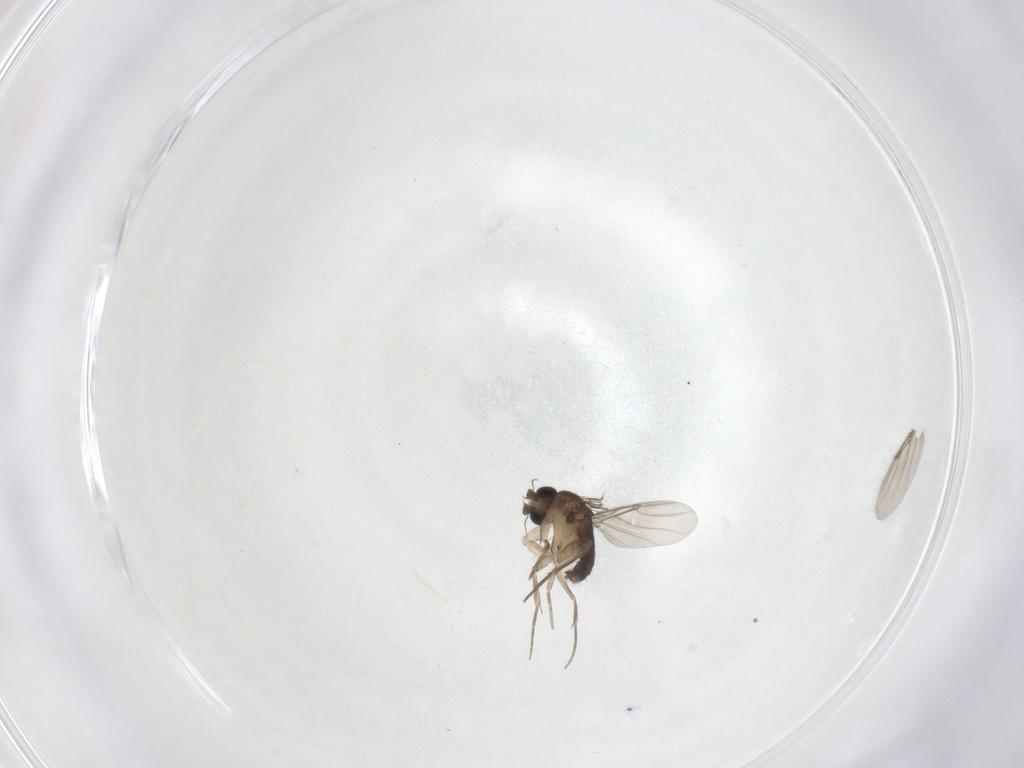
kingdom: Animalia
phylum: Arthropoda
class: Insecta
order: Diptera
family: Phoridae
